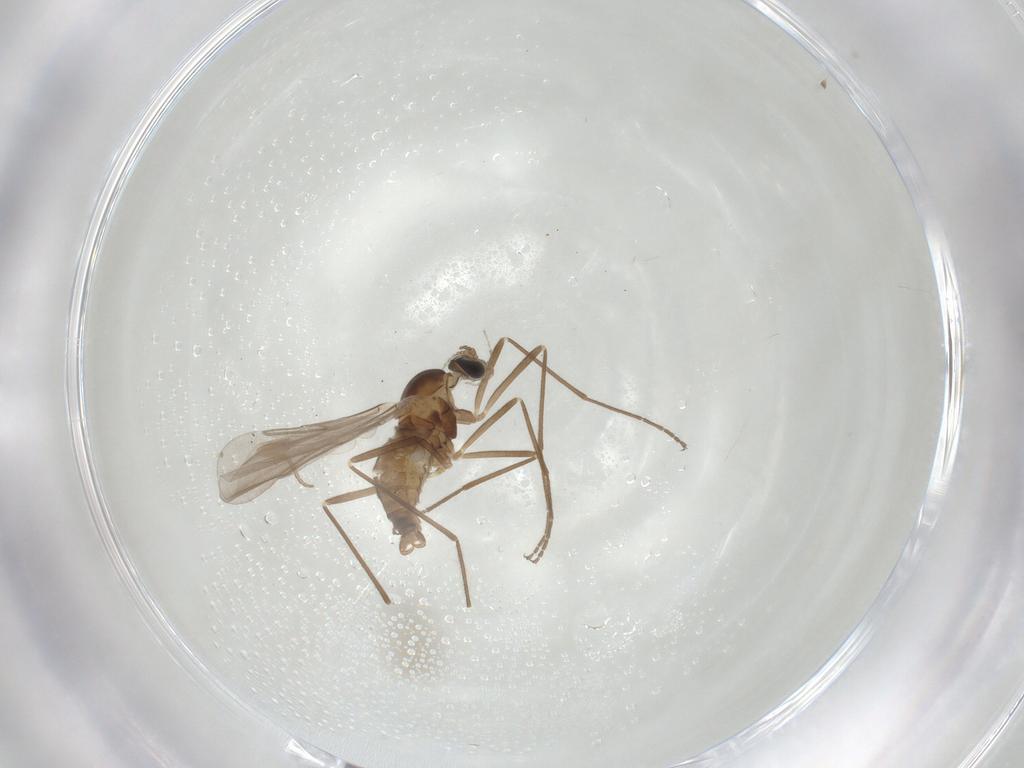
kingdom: Animalia
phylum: Arthropoda
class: Insecta
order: Diptera
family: Cecidomyiidae
